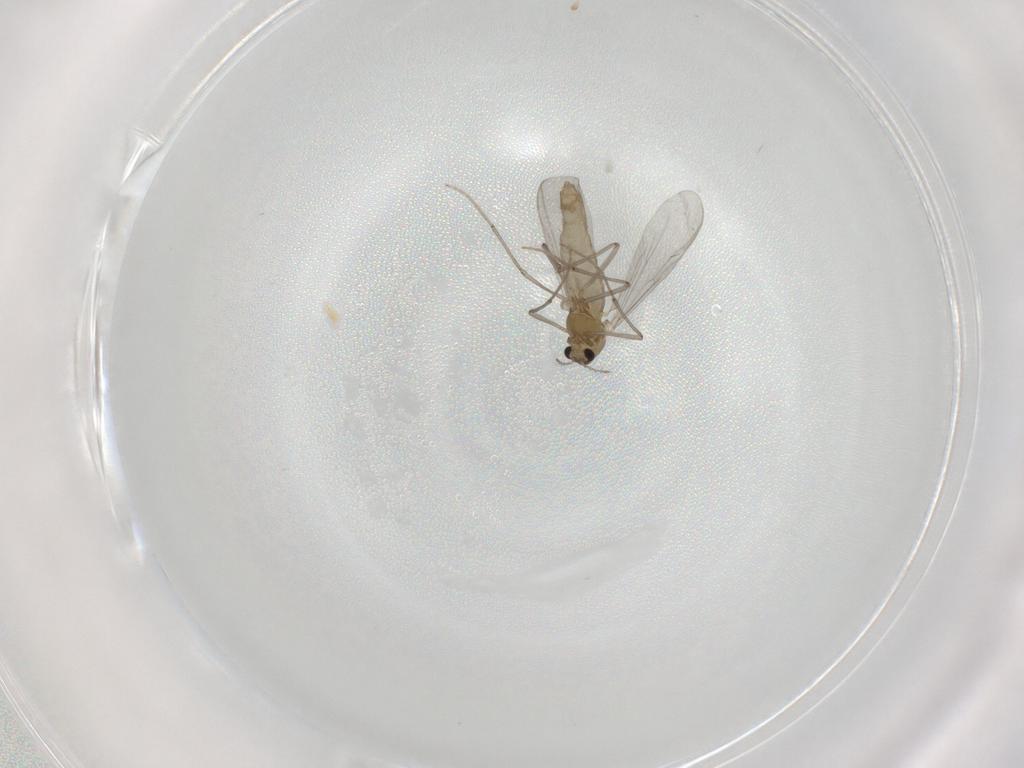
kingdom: Animalia
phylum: Arthropoda
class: Insecta
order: Diptera
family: Chironomidae
